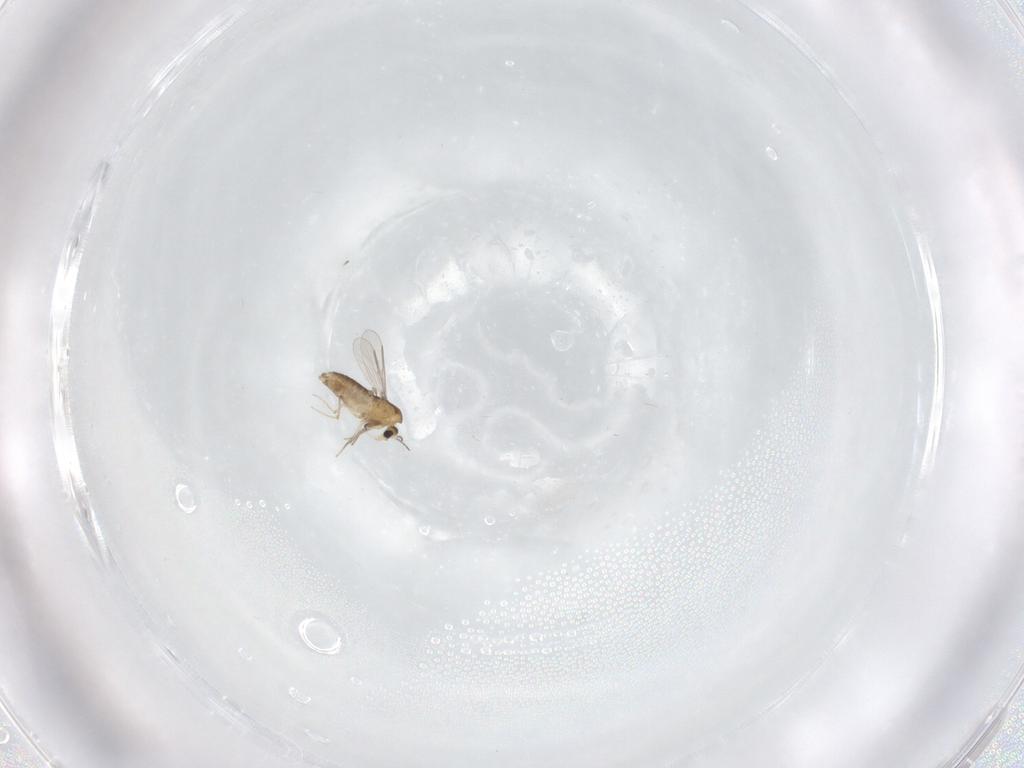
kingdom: Animalia
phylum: Arthropoda
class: Insecta
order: Diptera
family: Chironomidae
